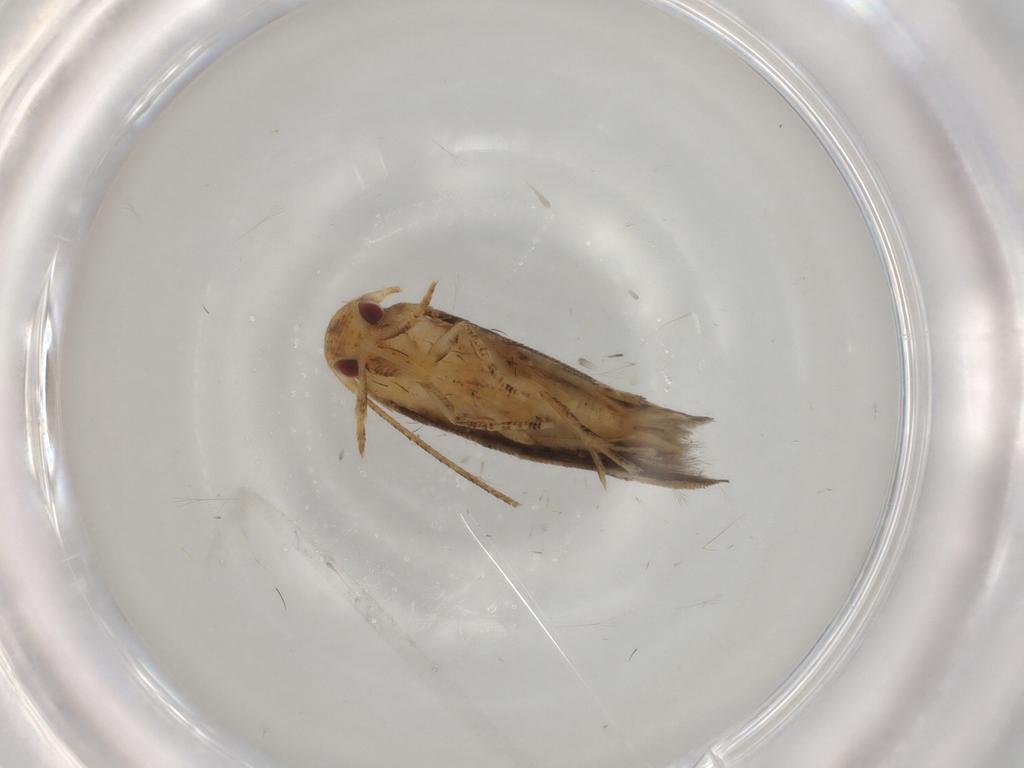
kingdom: Animalia
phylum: Arthropoda
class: Insecta
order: Lepidoptera
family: Tineidae
